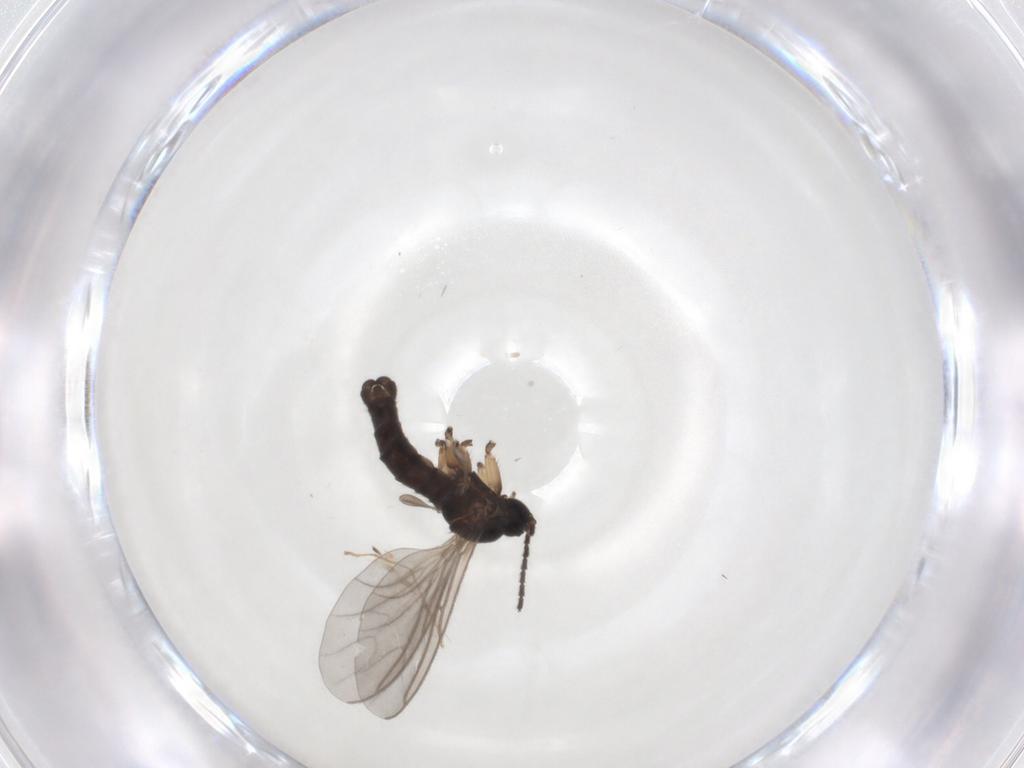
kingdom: Animalia
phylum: Arthropoda
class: Insecta
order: Diptera
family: Sciaridae
